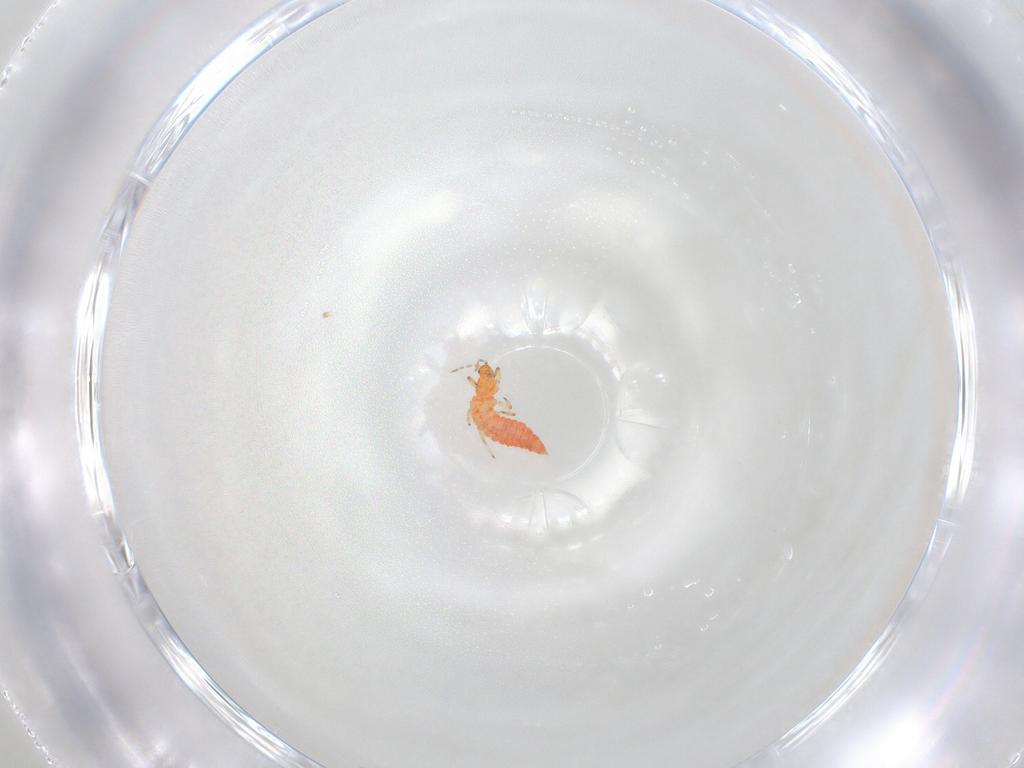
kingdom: Animalia
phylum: Arthropoda
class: Insecta
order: Thysanoptera
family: Aeolothripidae
